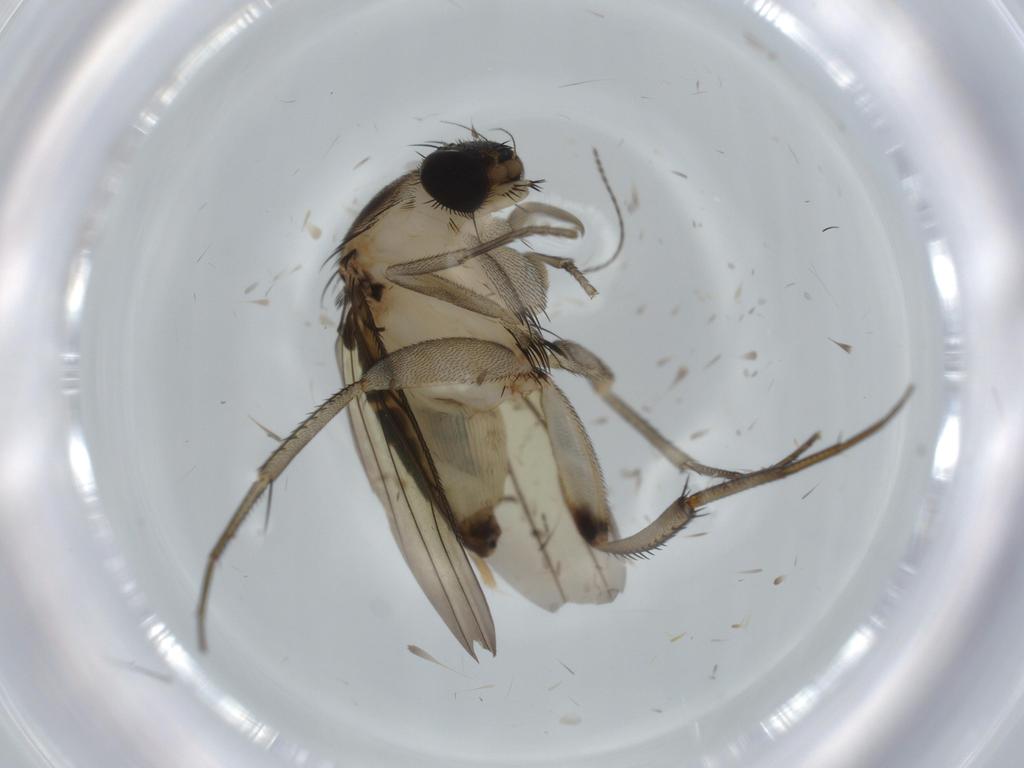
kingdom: Animalia
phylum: Arthropoda
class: Insecta
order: Diptera
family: Phoridae
